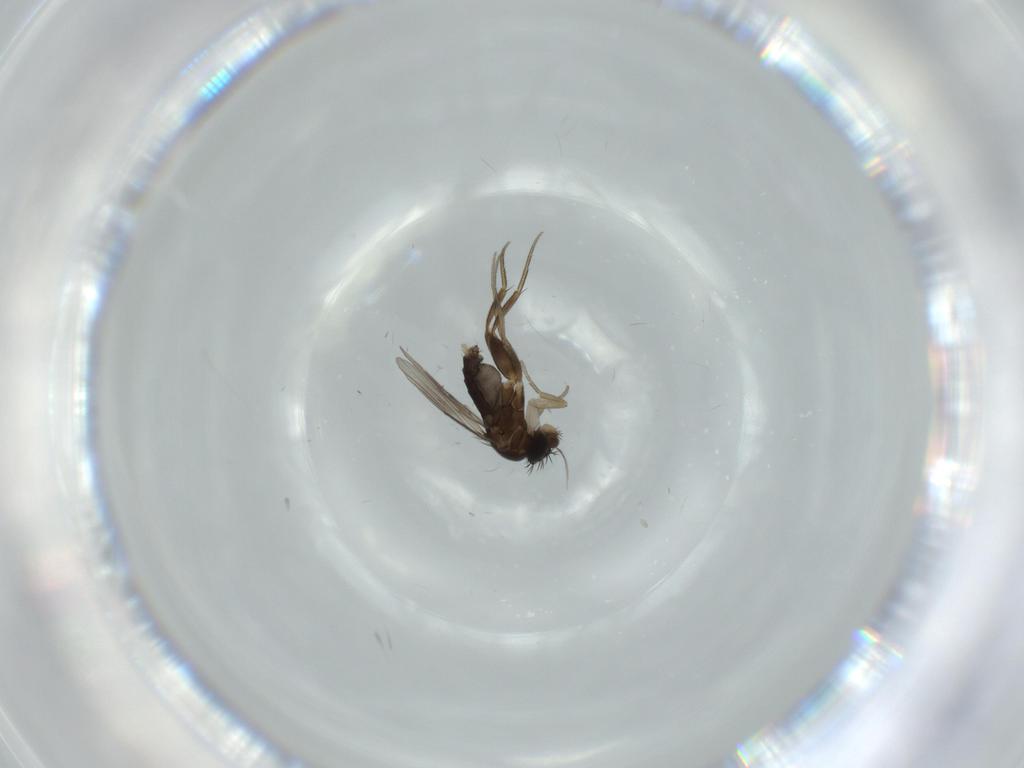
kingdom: Animalia
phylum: Arthropoda
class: Insecta
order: Diptera
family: Phoridae
